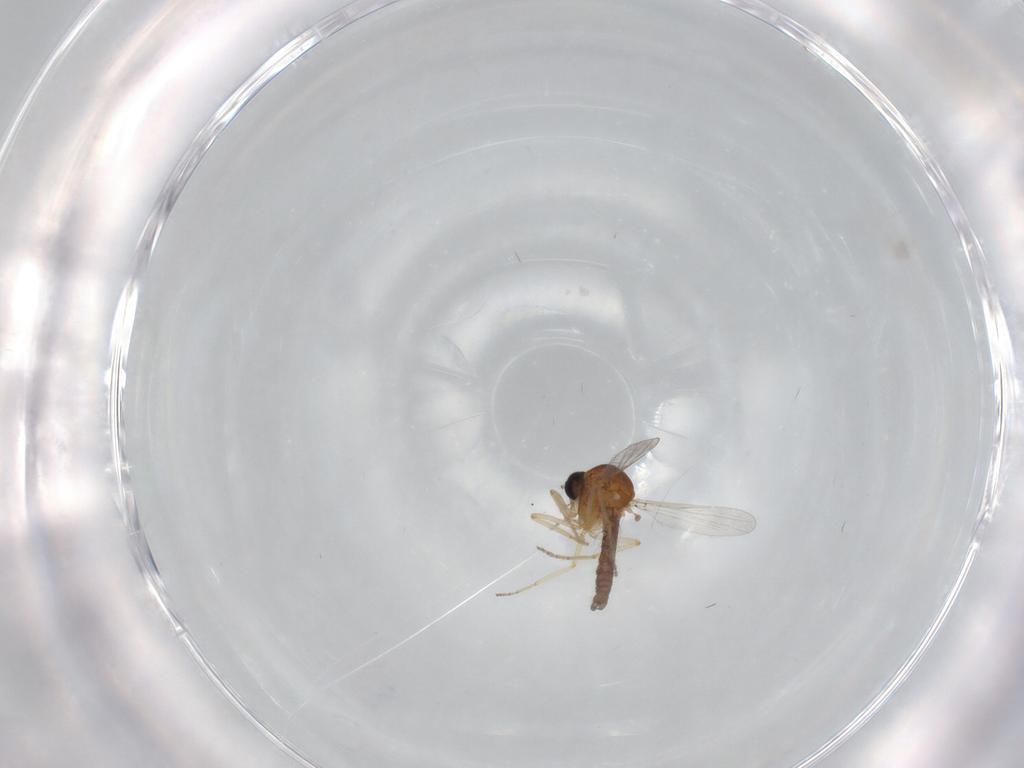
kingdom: Animalia
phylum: Arthropoda
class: Insecta
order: Diptera
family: Ceratopogonidae
